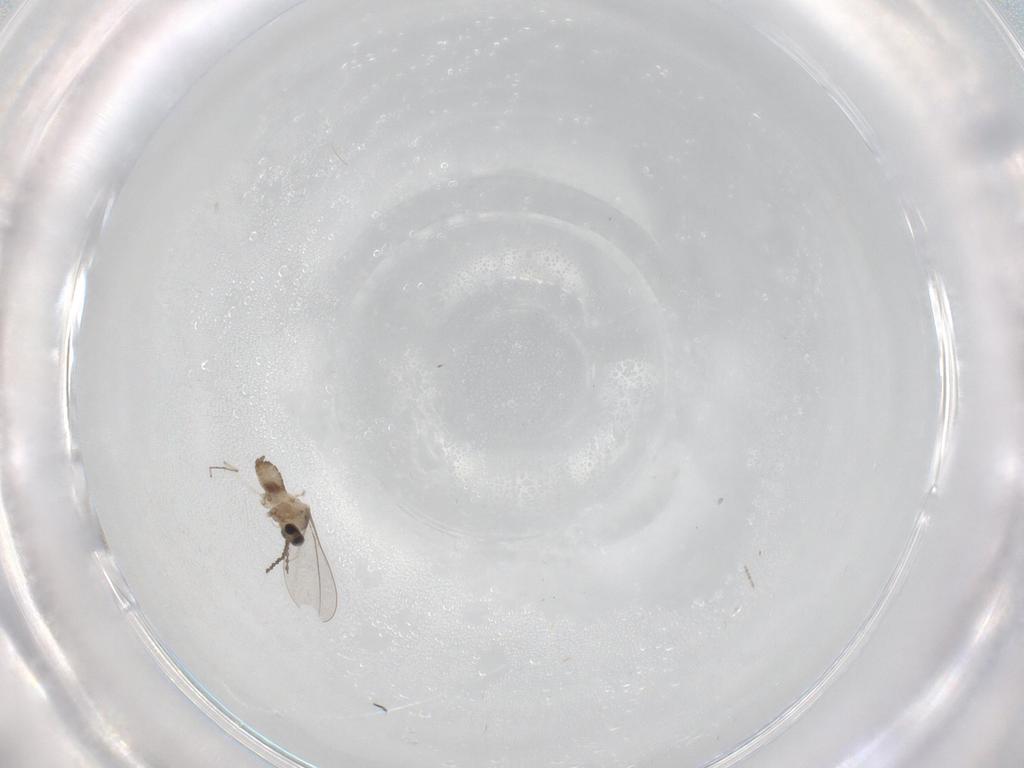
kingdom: Animalia
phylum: Arthropoda
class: Insecta
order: Diptera
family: Cecidomyiidae
